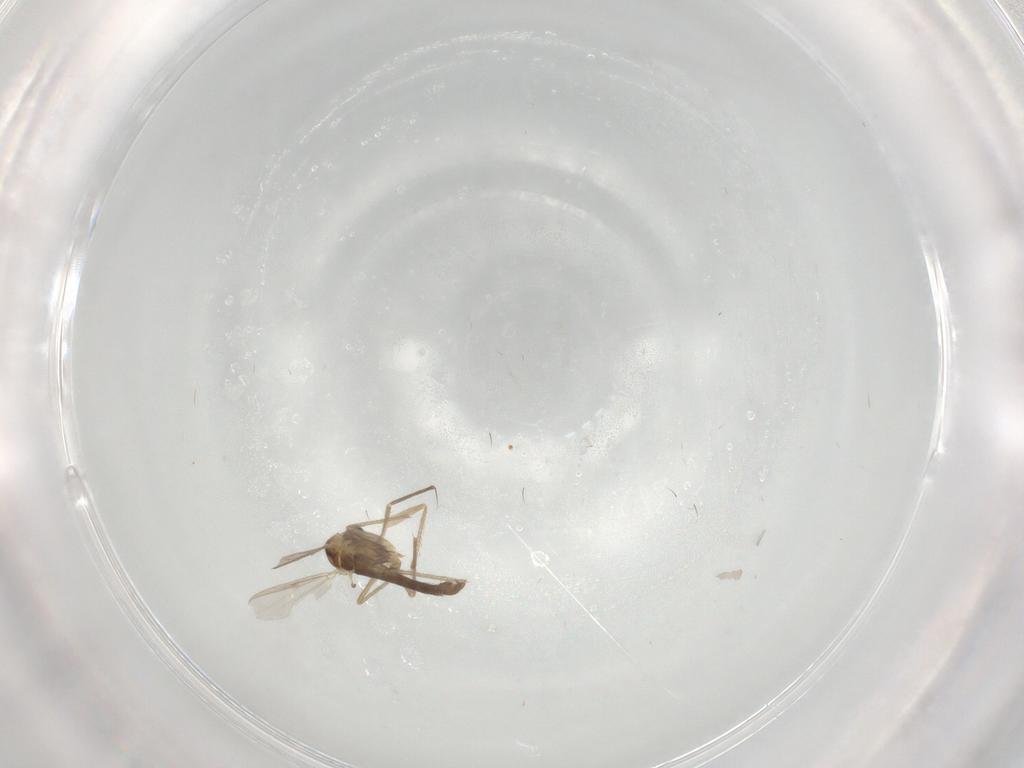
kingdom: Animalia
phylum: Arthropoda
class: Insecta
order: Diptera
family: Chironomidae
